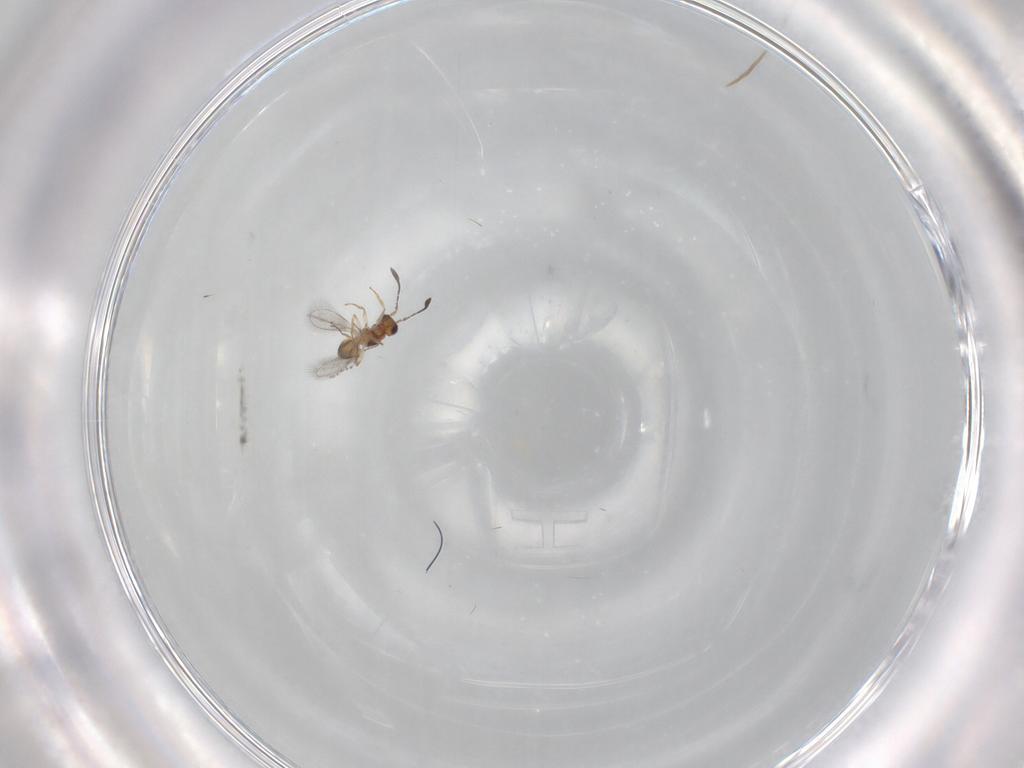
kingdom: Animalia
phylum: Arthropoda
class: Insecta
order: Hymenoptera
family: Mymaridae
